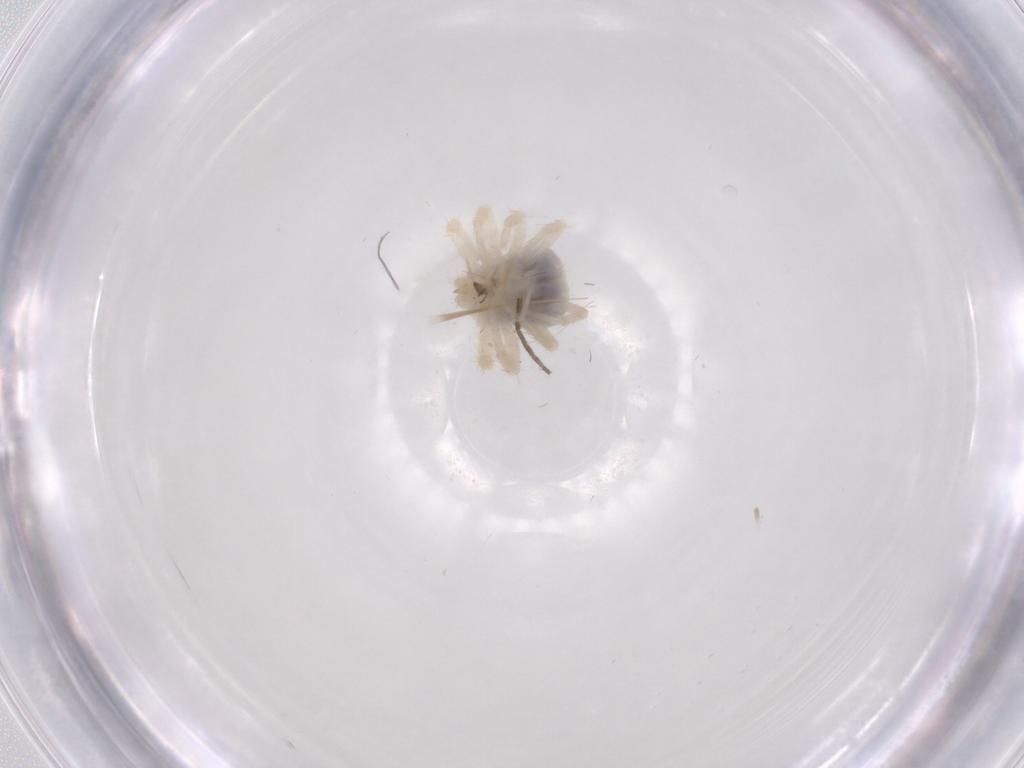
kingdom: Animalia
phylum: Arthropoda
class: Arachnida
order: Trombidiformes
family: Anystidae
